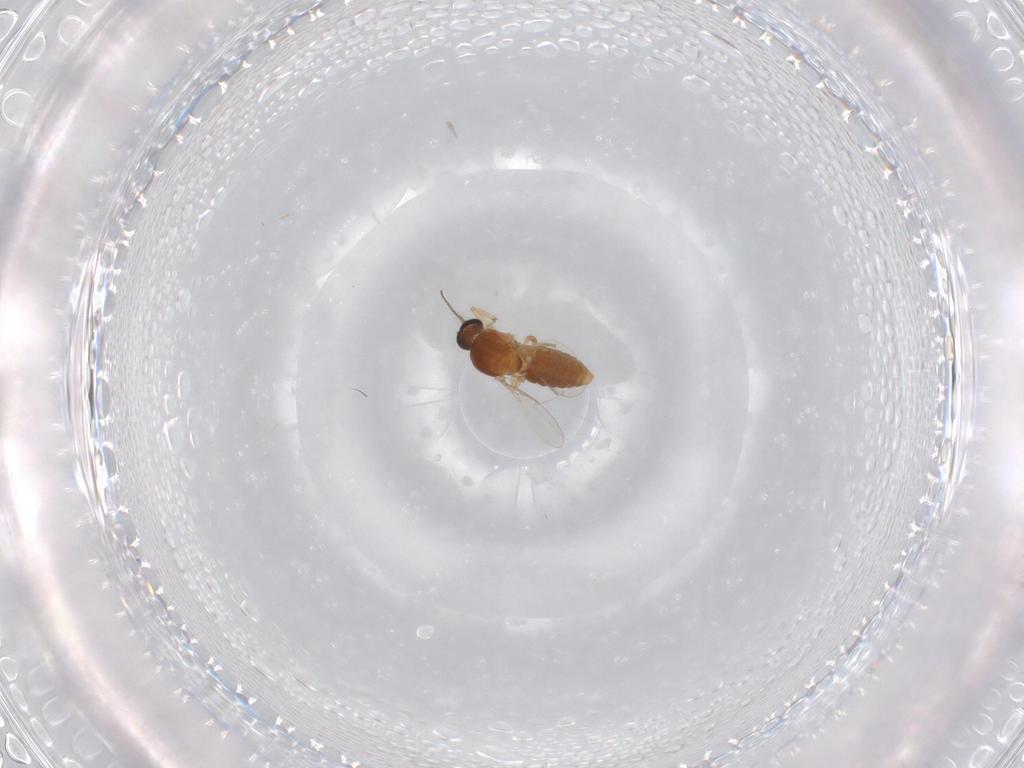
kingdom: Animalia
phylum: Arthropoda
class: Insecta
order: Diptera
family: Ceratopogonidae
